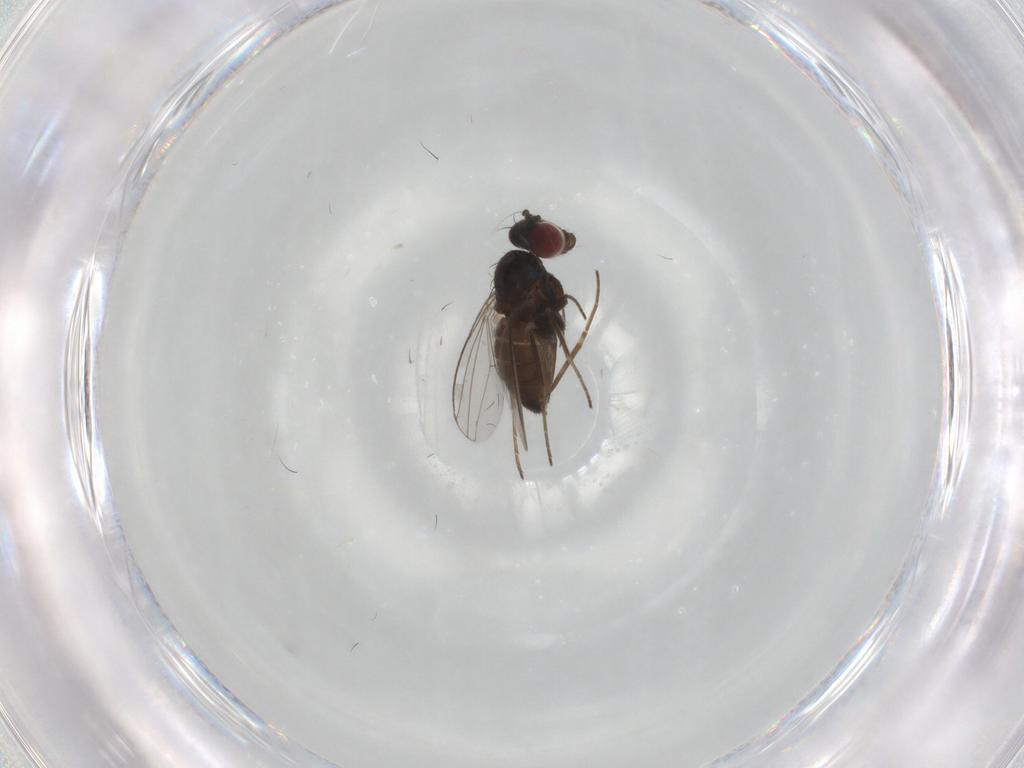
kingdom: Animalia
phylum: Arthropoda
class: Insecta
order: Diptera
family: Dolichopodidae
